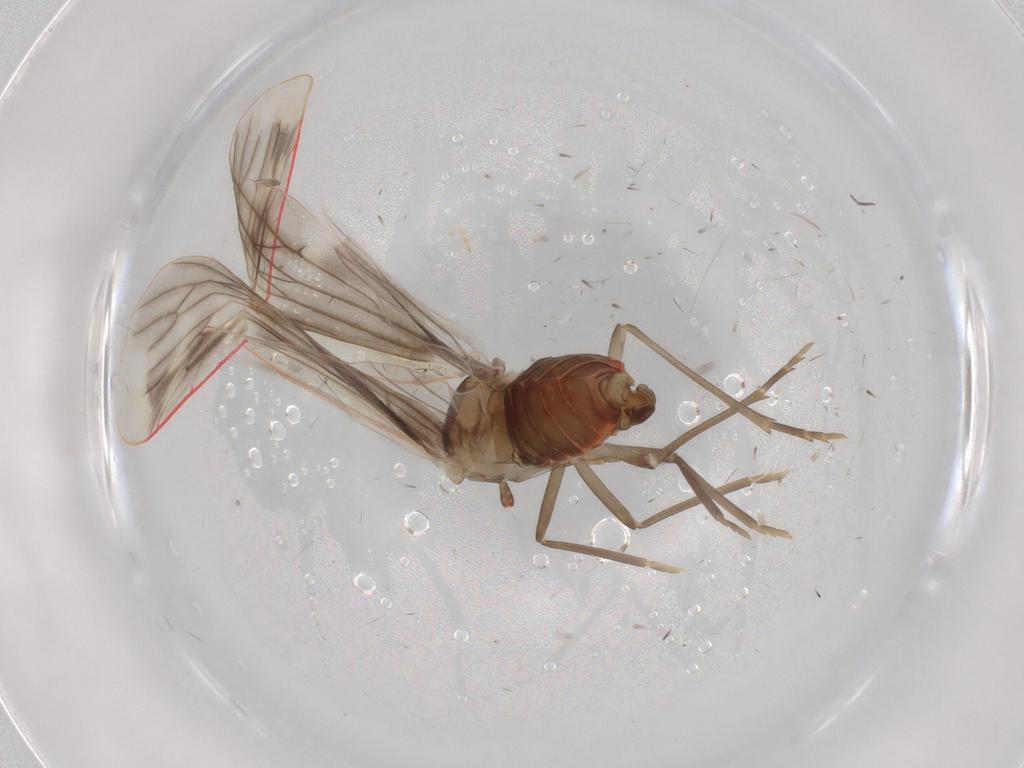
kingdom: Animalia
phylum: Arthropoda
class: Insecta
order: Hemiptera
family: Derbidae
